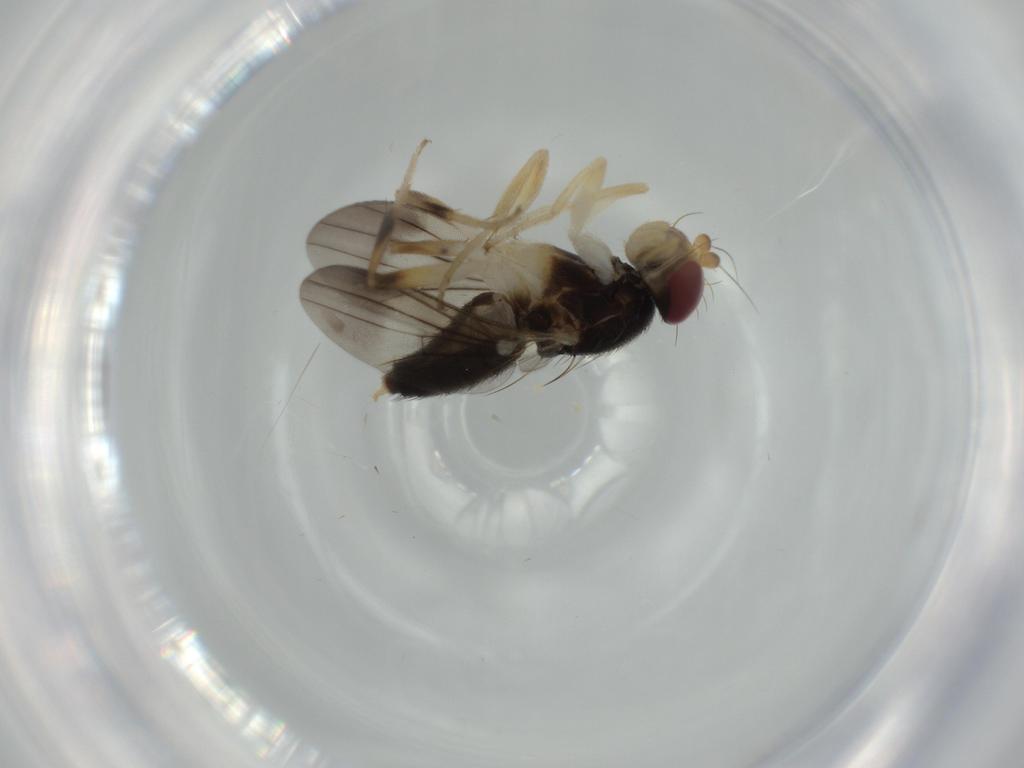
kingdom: Animalia
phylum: Arthropoda
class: Insecta
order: Diptera
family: Clusiidae
